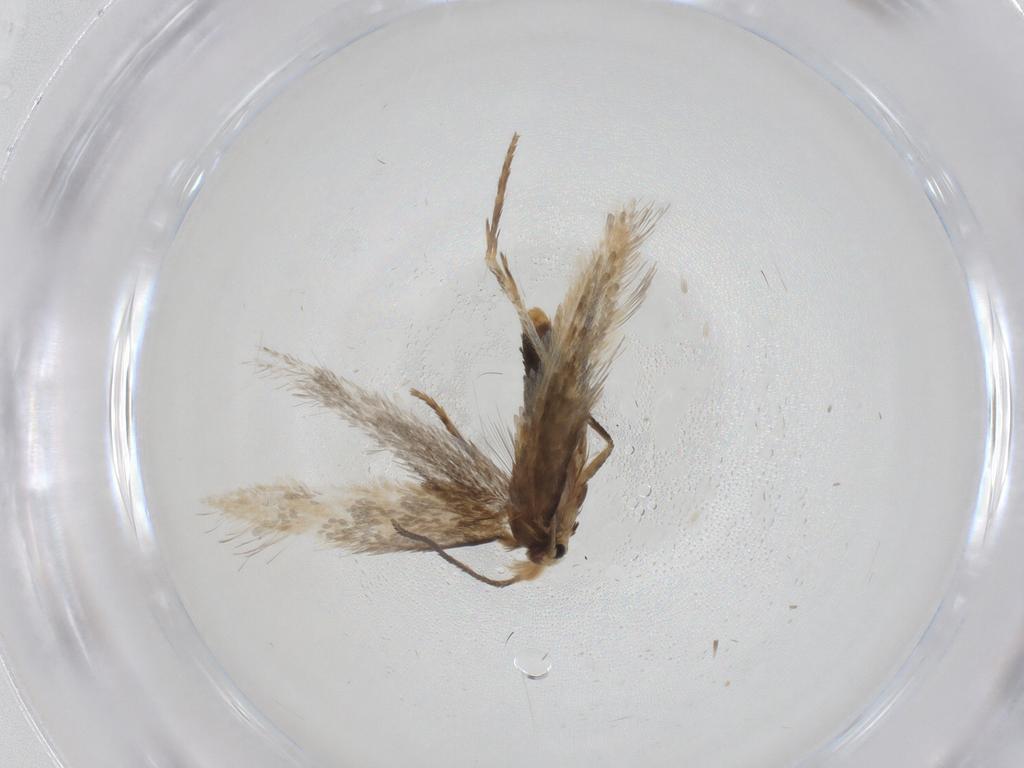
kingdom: Animalia
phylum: Arthropoda
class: Insecta
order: Lepidoptera
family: Nepticulidae
